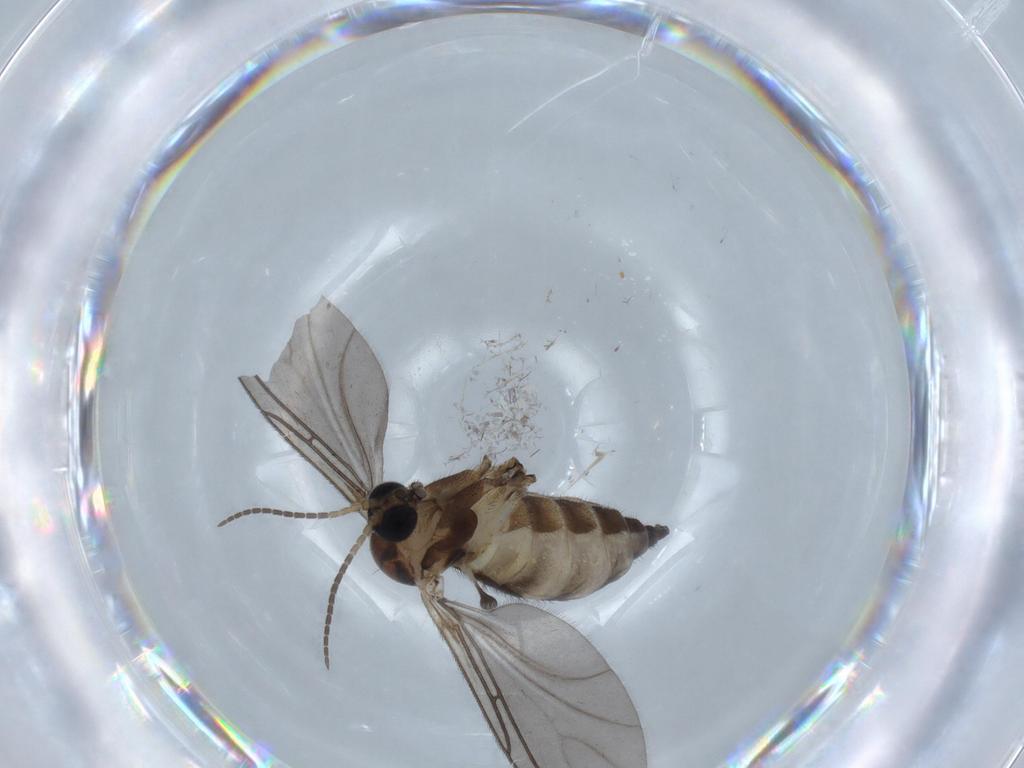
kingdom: Animalia
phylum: Arthropoda
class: Insecta
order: Diptera
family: Sciaridae
